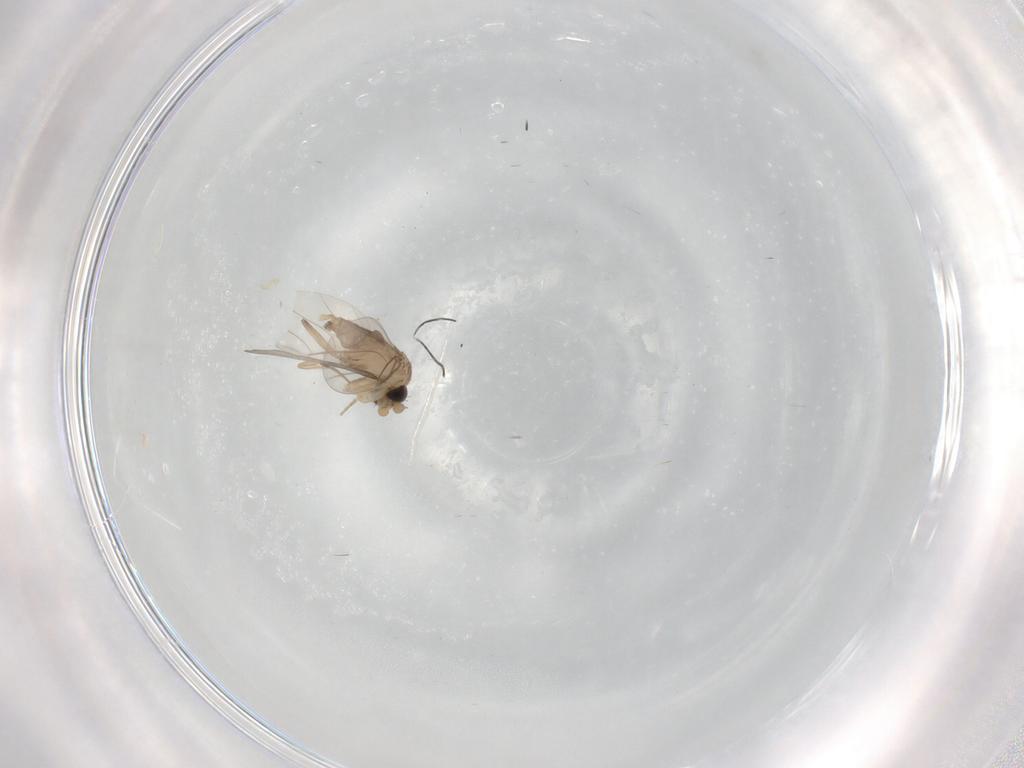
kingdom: Animalia
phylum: Arthropoda
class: Insecta
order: Diptera
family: Phoridae
